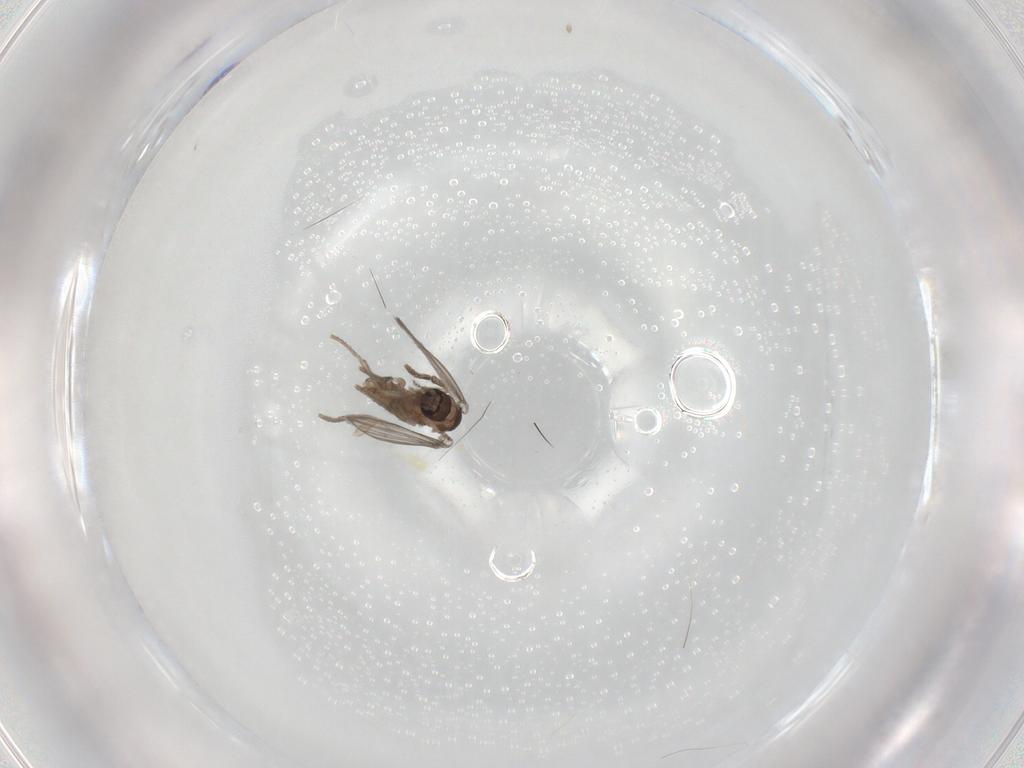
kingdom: Animalia
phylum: Arthropoda
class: Insecta
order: Diptera
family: Psychodidae
